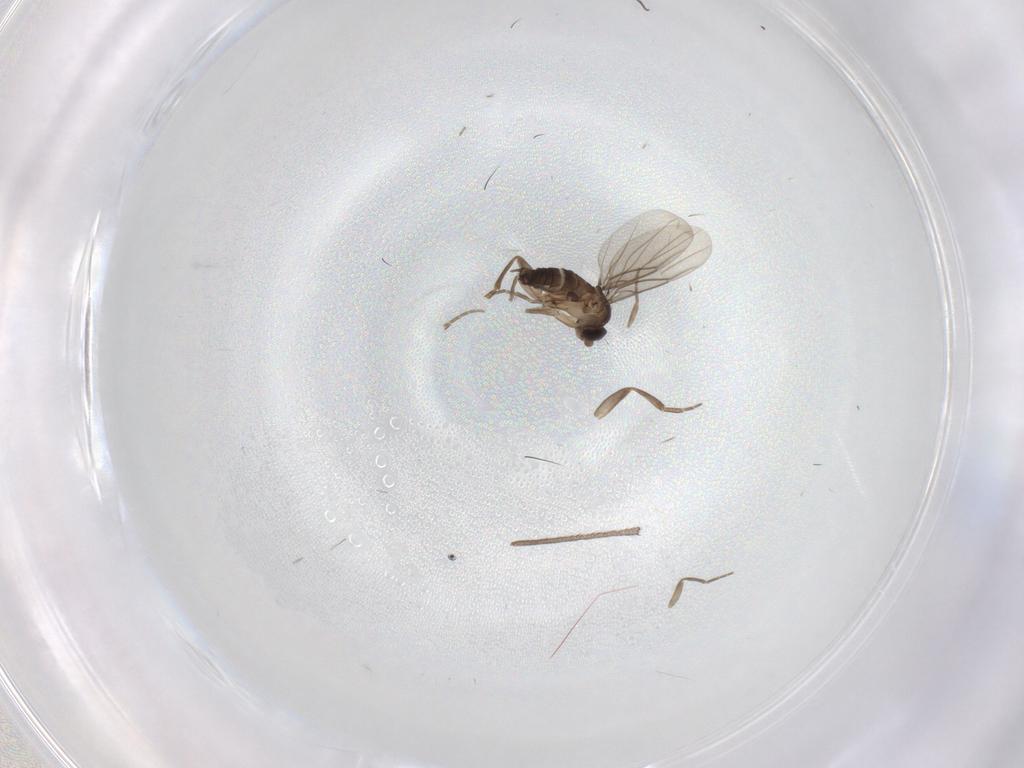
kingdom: Animalia
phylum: Arthropoda
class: Insecta
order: Diptera
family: Phoridae
